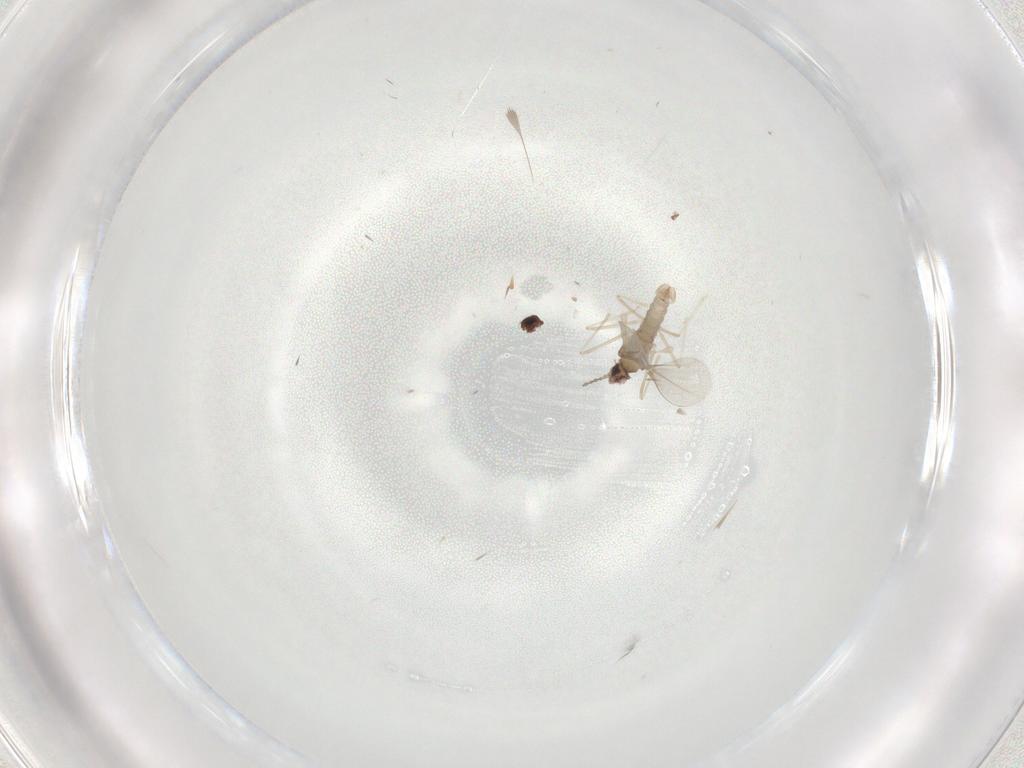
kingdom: Animalia
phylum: Arthropoda
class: Insecta
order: Diptera
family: Cecidomyiidae
